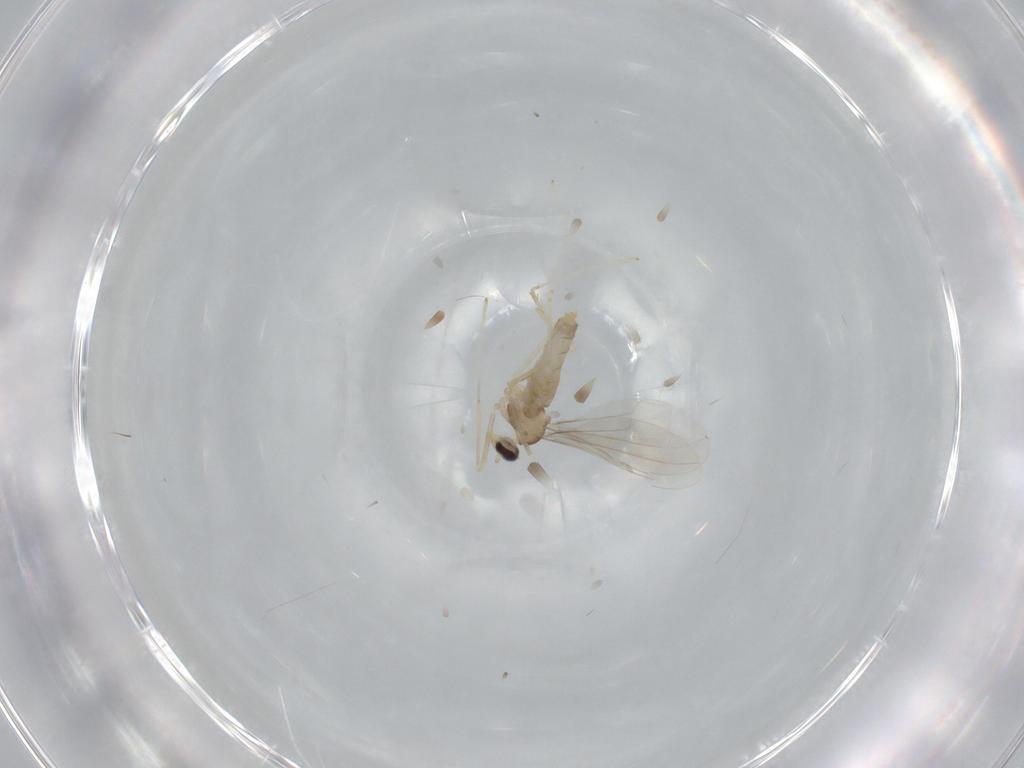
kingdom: Animalia
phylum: Arthropoda
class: Insecta
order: Diptera
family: Cecidomyiidae
